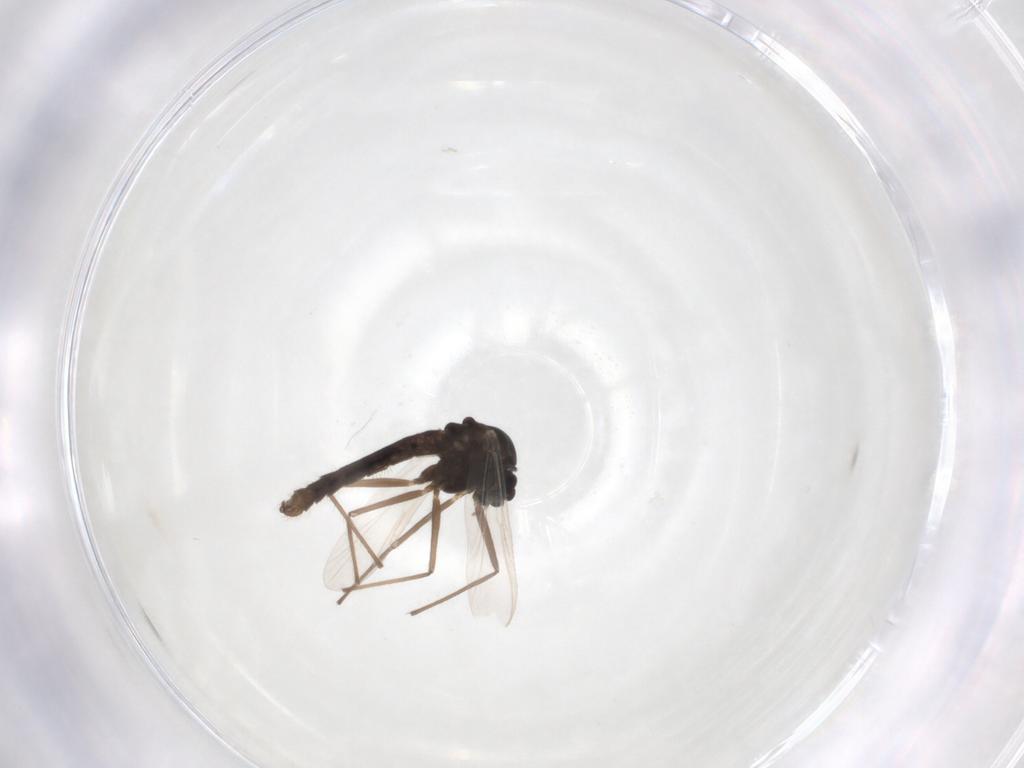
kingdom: Animalia
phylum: Arthropoda
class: Insecta
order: Diptera
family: Chironomidae
